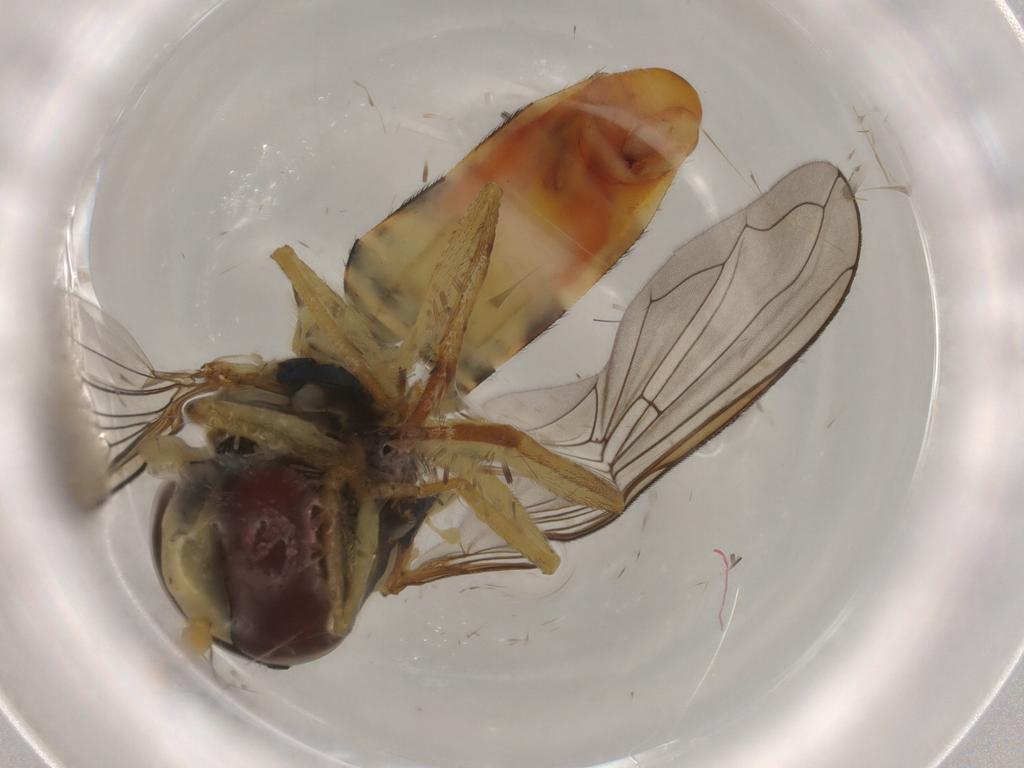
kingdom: Animalia
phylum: Arthropoda
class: Insecta
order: Diptera
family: Syrphidae
